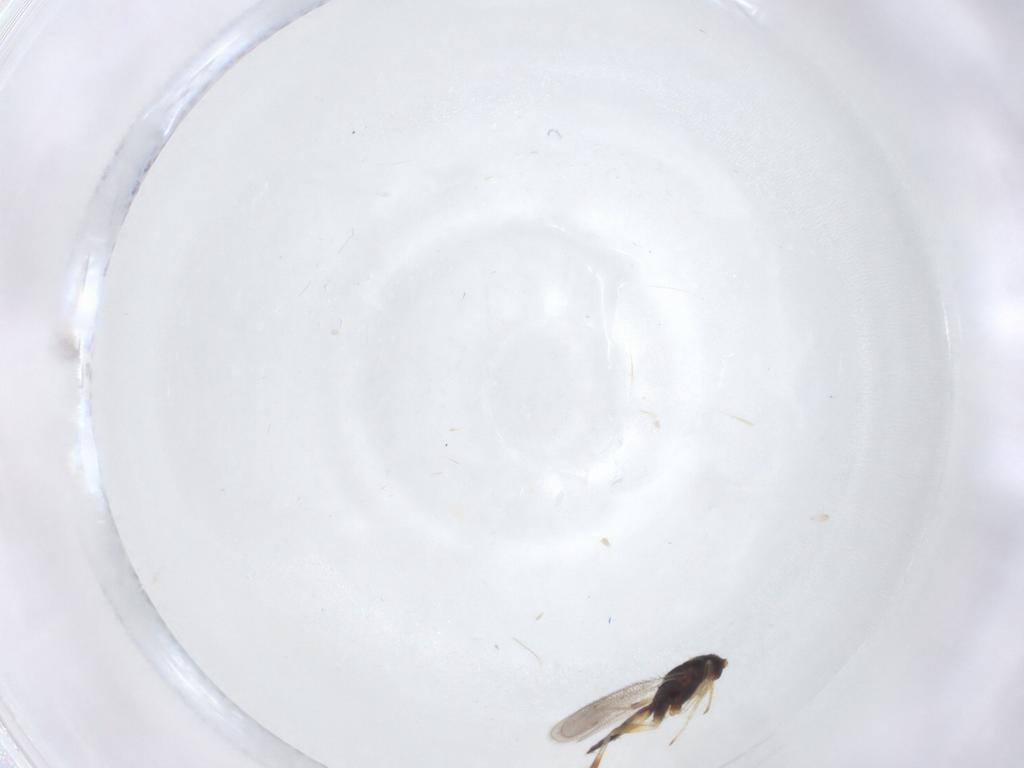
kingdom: Animalia
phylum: Arthropoda
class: Insecta
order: Hymenoptera
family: Eulophidae
